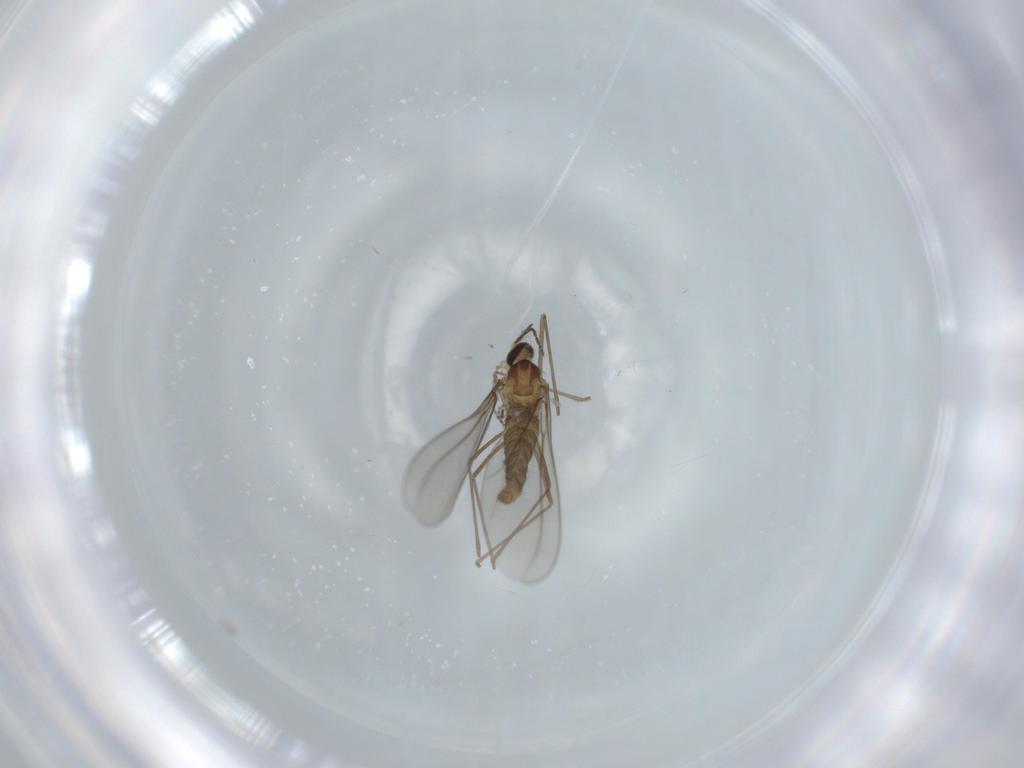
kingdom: Animalia
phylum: Arthropoda
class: Insecta
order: Diptera
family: Cecidomyiidae
